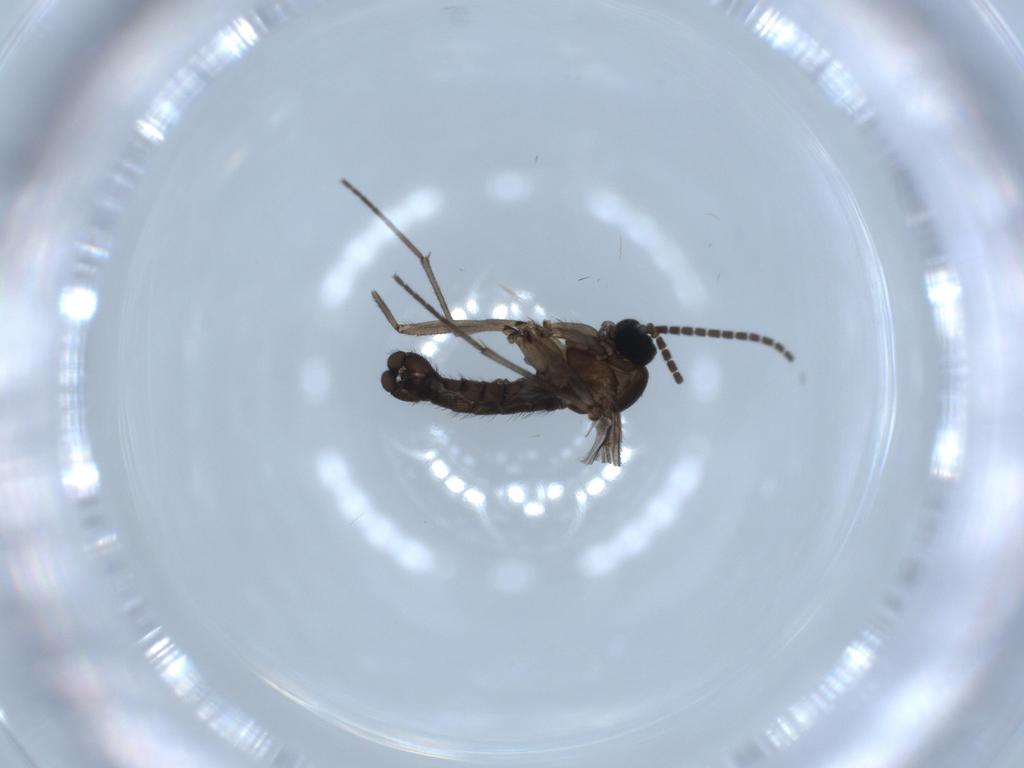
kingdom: Animalia
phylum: Arthropoda
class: Insecta
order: Diptera
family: Sciaridae
